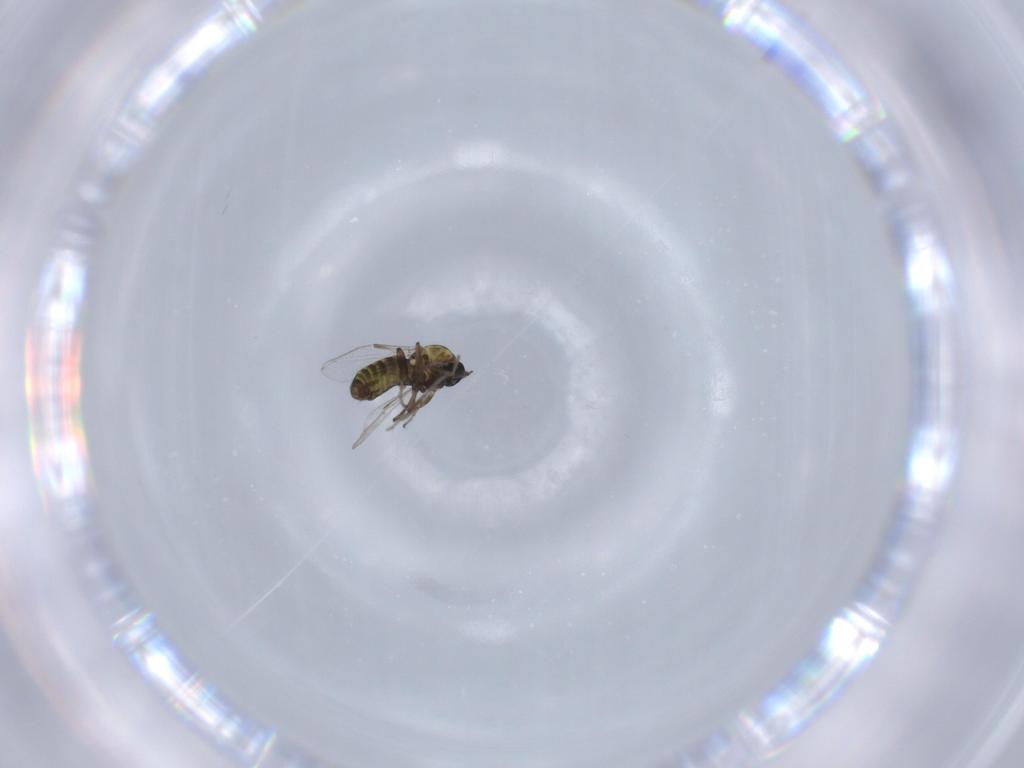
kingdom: Animalia
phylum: Arthropoda
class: Insecta
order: Diptera
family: Ceratopogonidae
